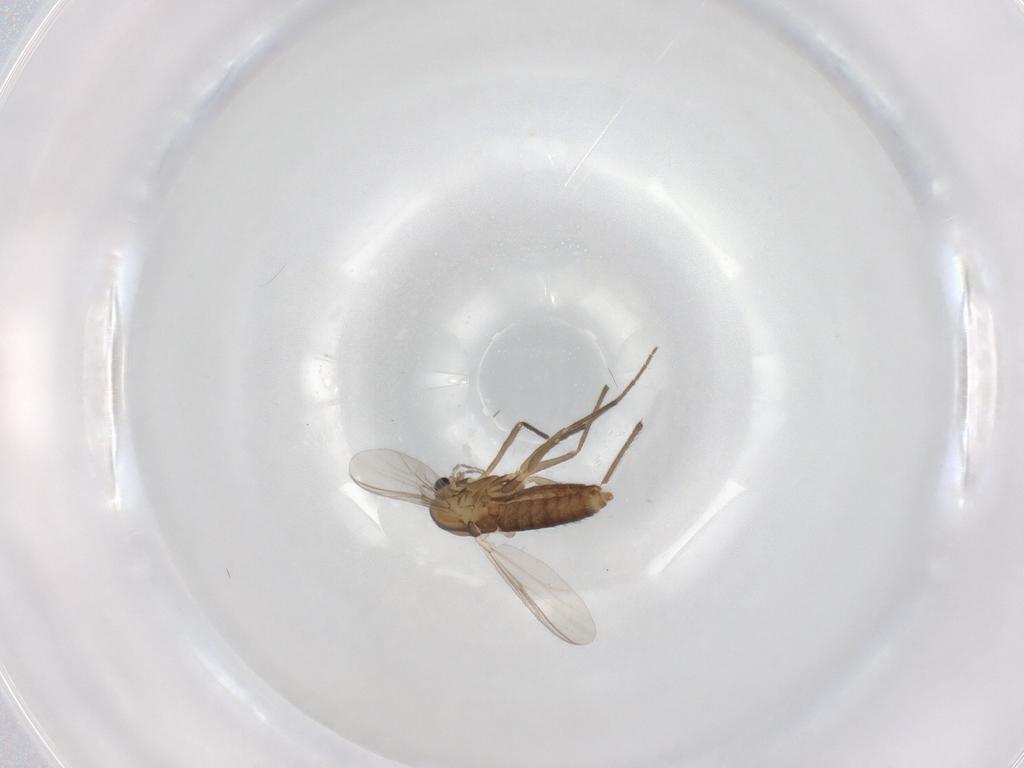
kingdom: Animalia
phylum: Arthropoda
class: Insecta
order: Diptera
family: Chironomidae
